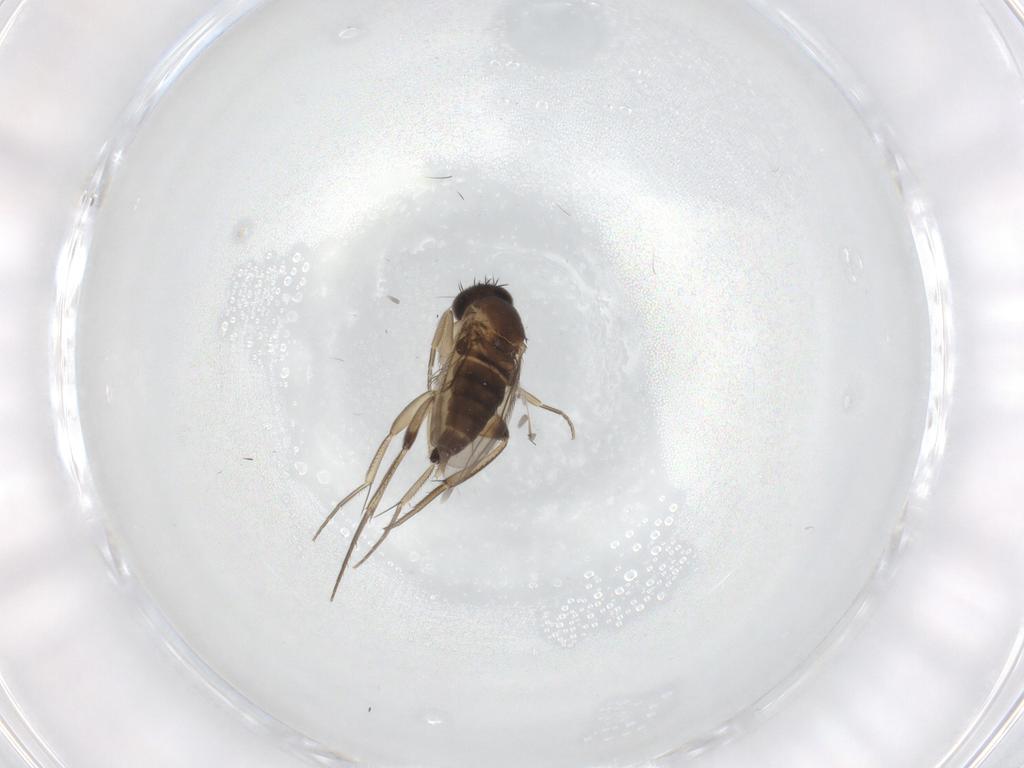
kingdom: Animalia
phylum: Arthropoda
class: Insecta
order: Diptera
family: Phoridae
